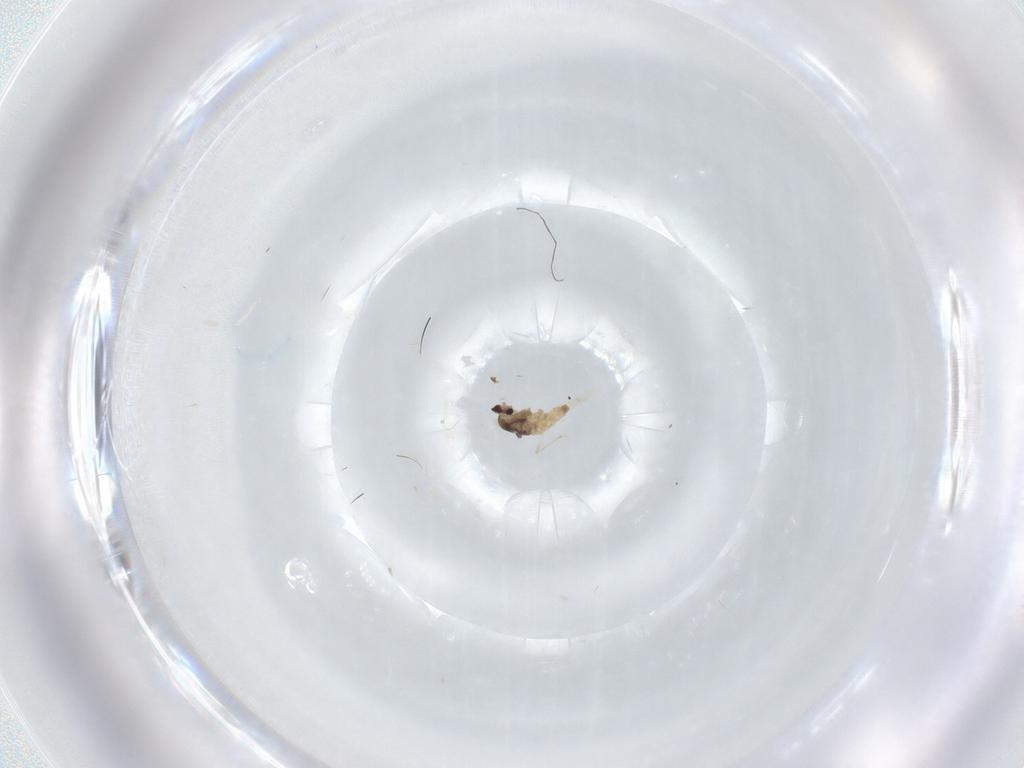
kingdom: Animalia
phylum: Arthropoda
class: Insecta
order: Diptera
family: Cecidomyiidae
